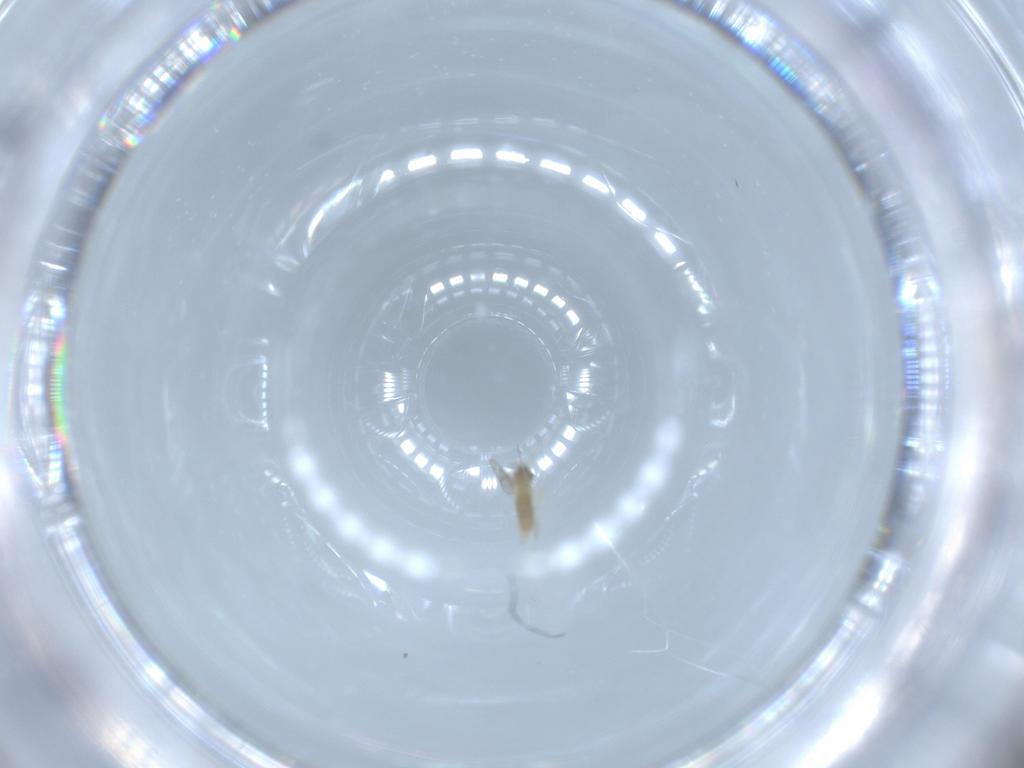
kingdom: Animalia
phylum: Arthropoda
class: Insecta
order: Diptera
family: Cecidomyiidae
